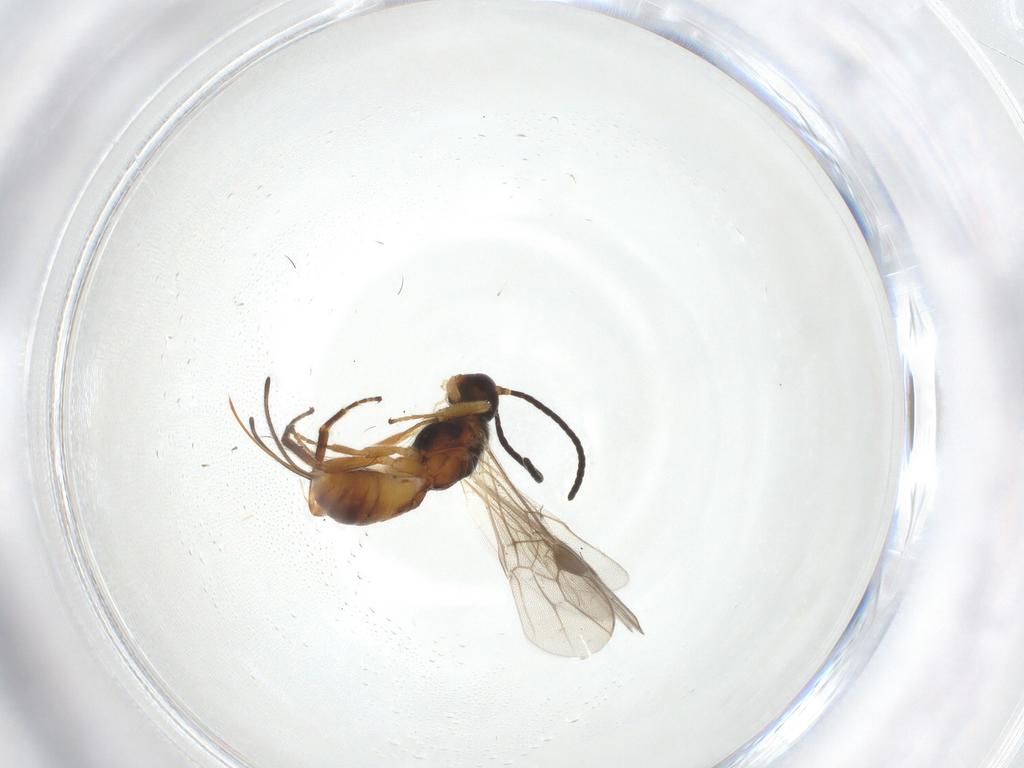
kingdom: Animalia
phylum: Arthropoda
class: Insecta
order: Hymenoptera
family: Braconidae
